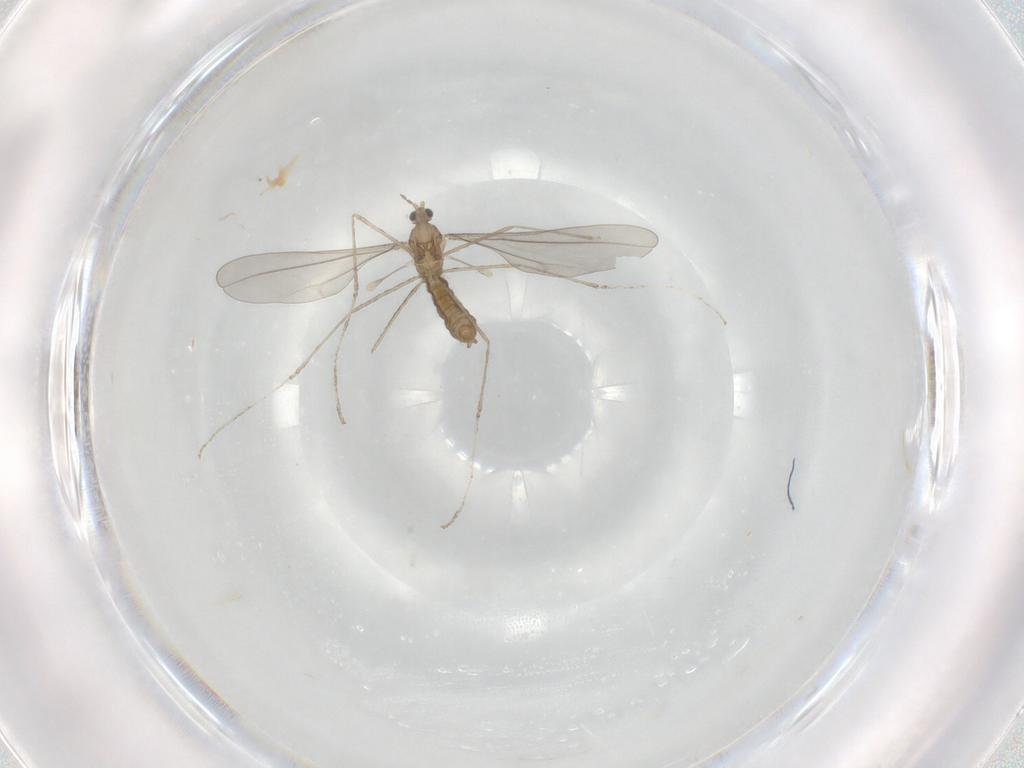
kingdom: Animalia
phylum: Arthropoda
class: Insecta
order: Diptera
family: Cecidomyiidae
